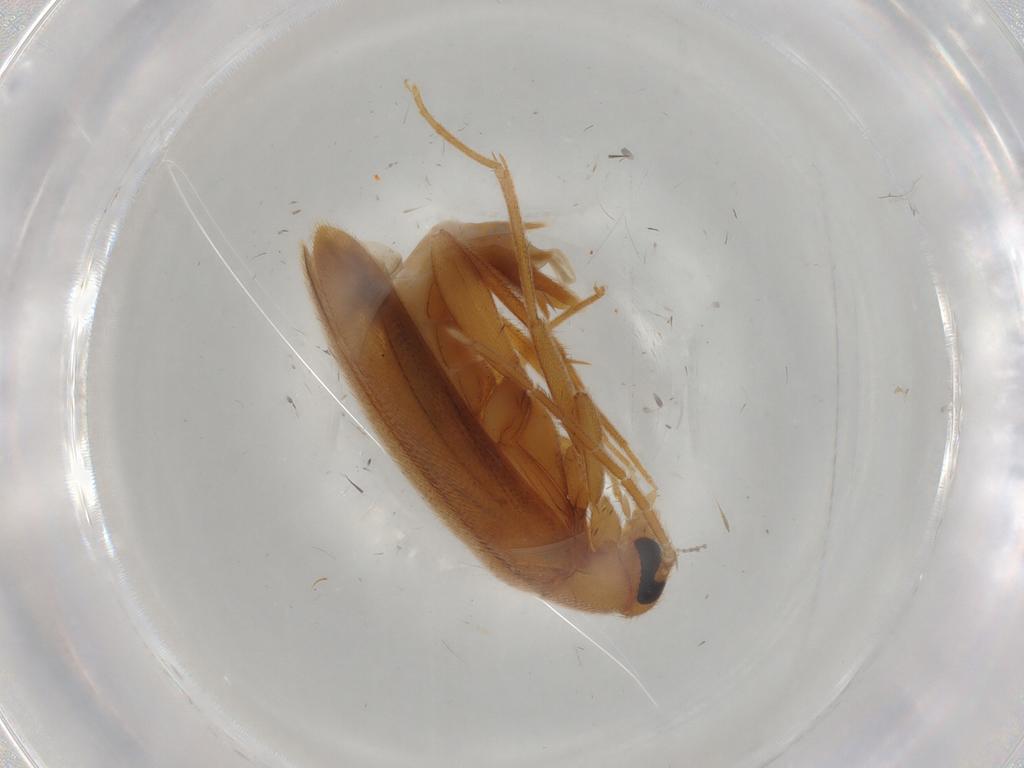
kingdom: Animalia
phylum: Arthropoda
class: Insecta
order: Coleoptera
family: Scraptiidae
